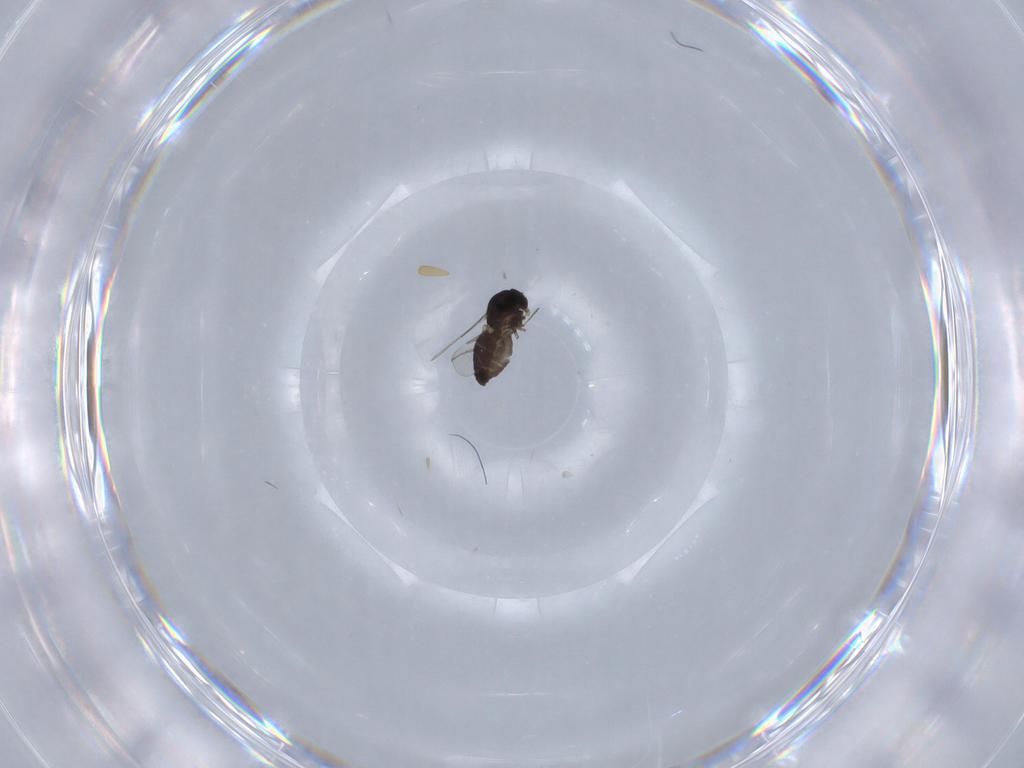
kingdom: Animalia
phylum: Arthropoda
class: Insecta
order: Diptera
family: Ceratopogonidae
